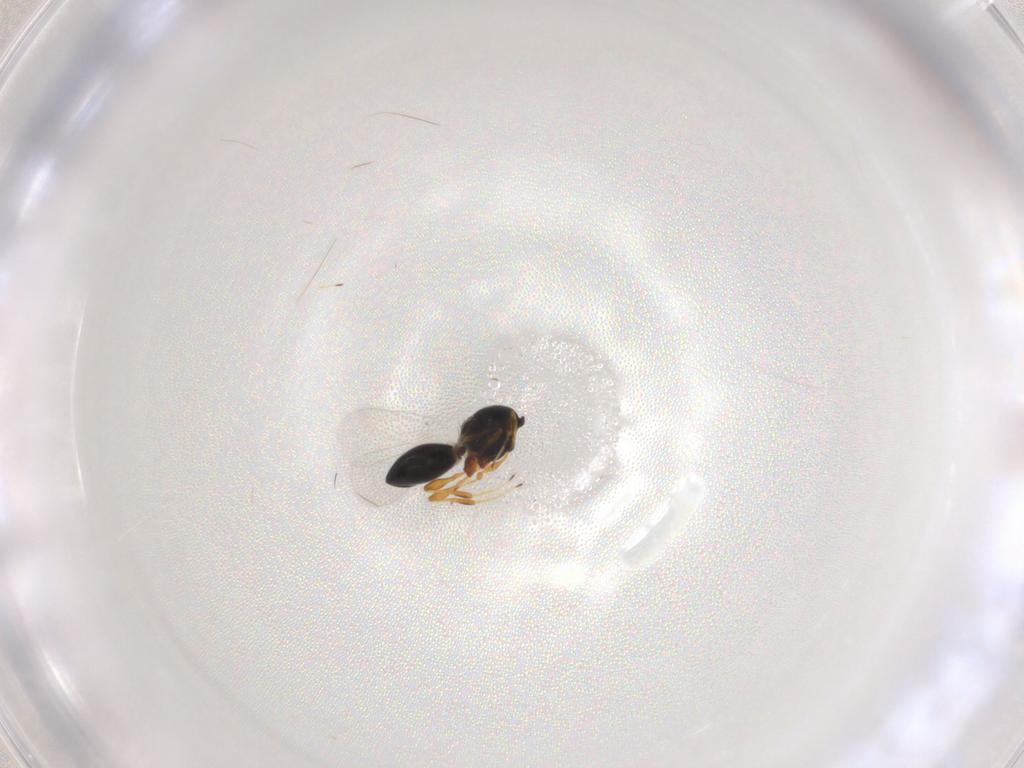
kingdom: Animalia
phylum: Arthropoda
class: Insecta
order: Hymenoptera
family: Platygastridae
